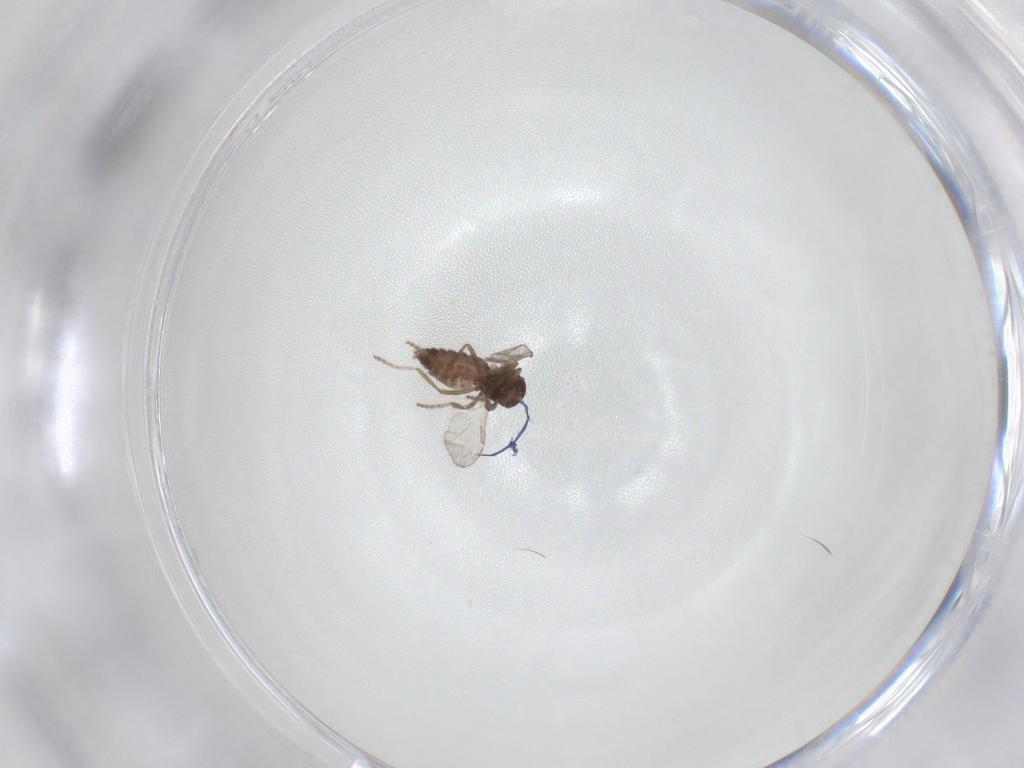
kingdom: Animalia
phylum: Arthropoda
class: Insecta
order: Diptera
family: Ceratopogonidae
